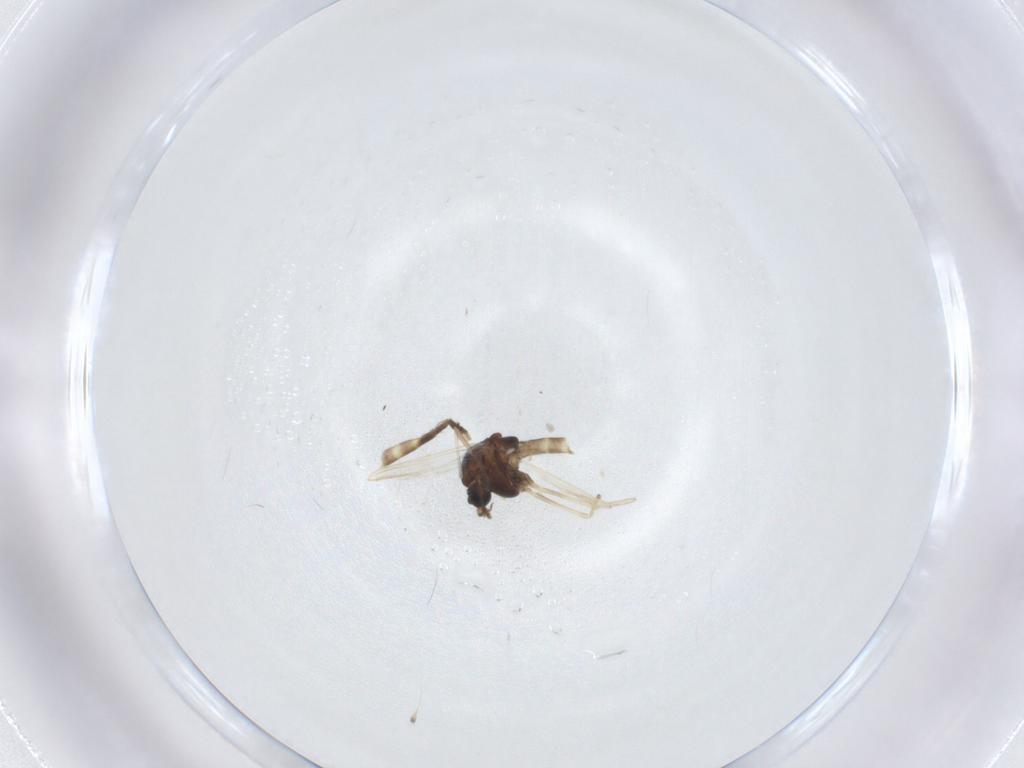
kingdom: Animalia
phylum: Arthropoda
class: Insecta
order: Diptera
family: Chironomidae
